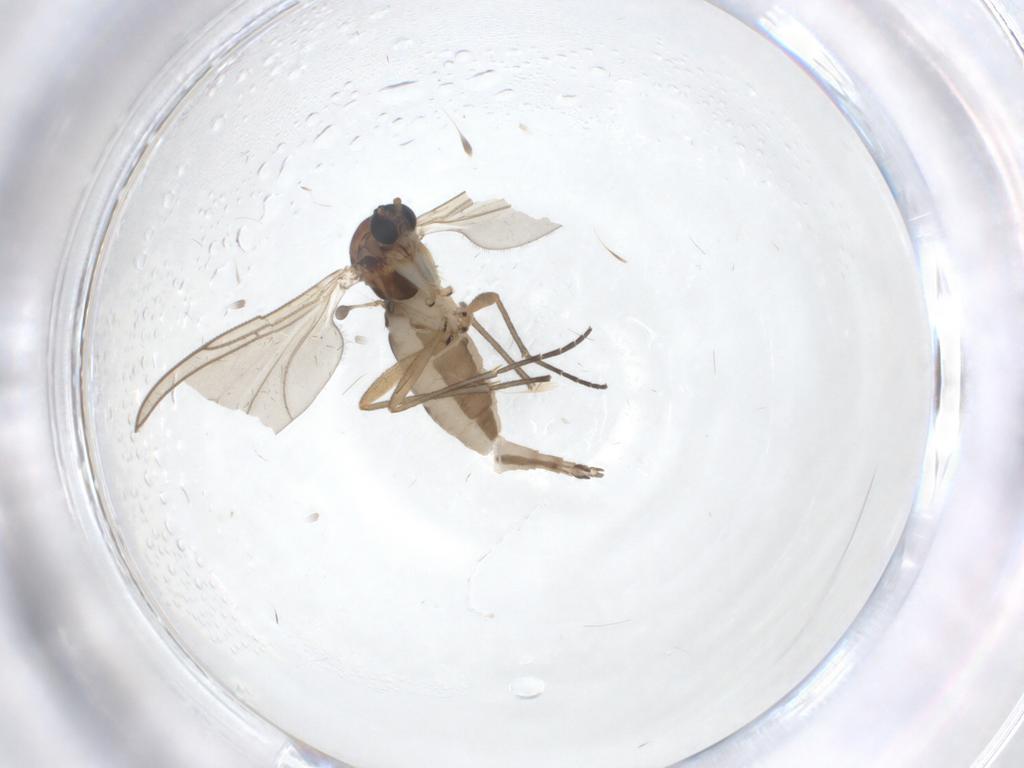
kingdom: Animalia
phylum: Arthropoda
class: Insecta
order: Diptera
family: Sciaridae
